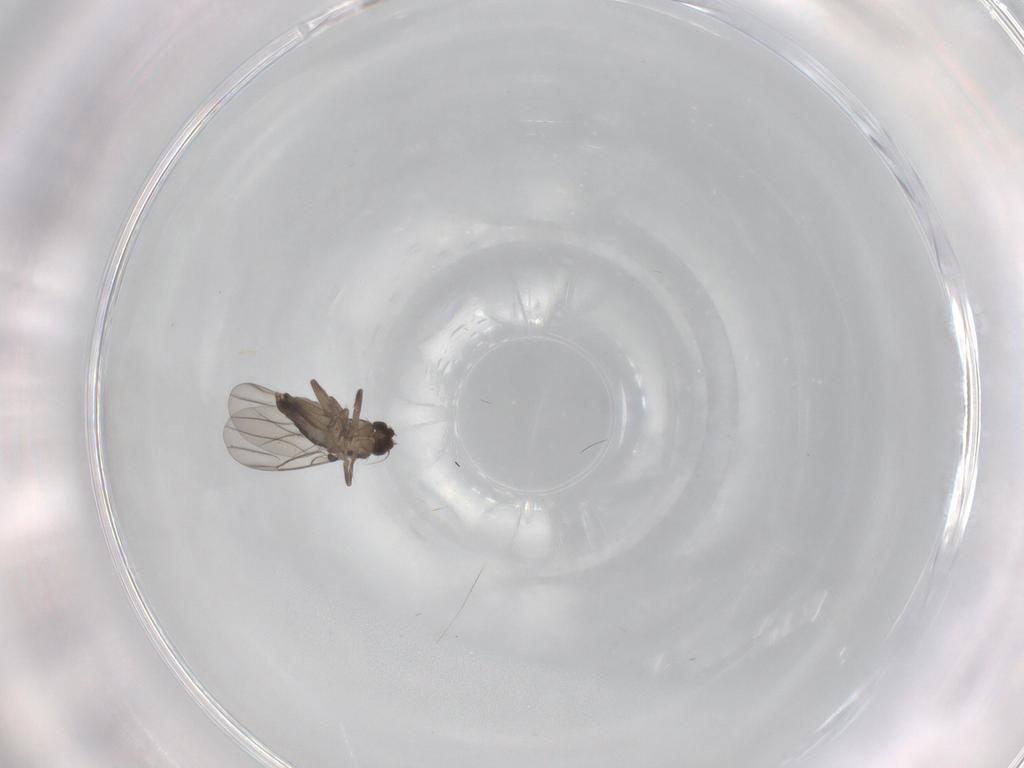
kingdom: Animalia
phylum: Arthropoda
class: Insecta
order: Diptera
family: Phoridae
